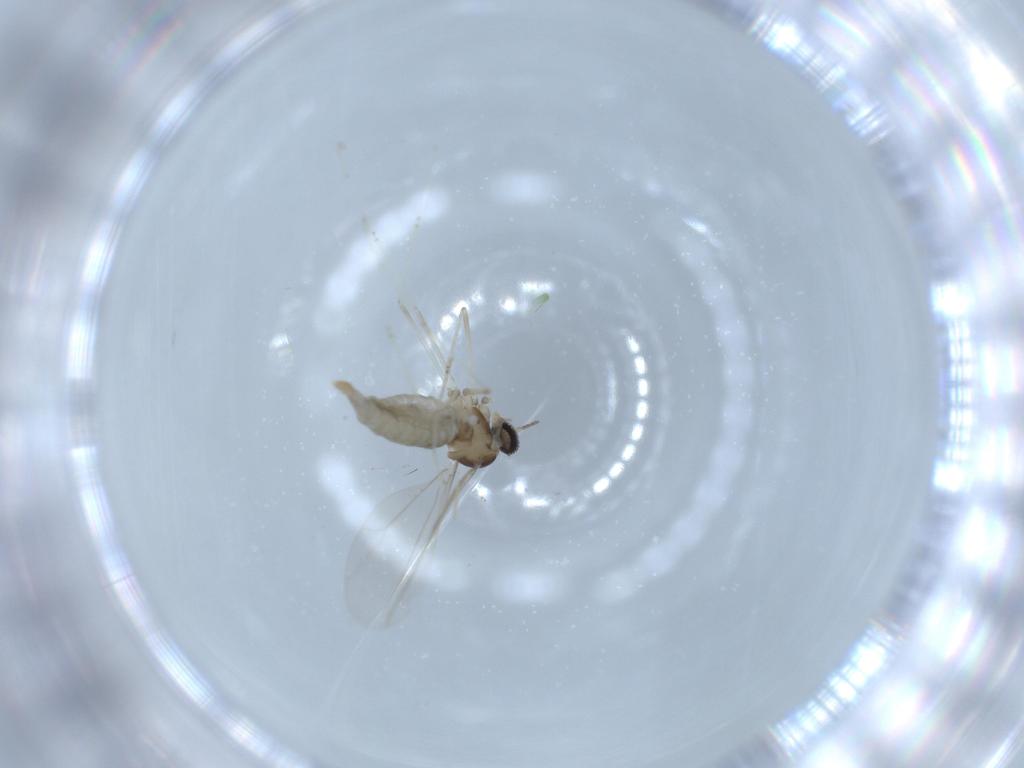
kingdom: Animalia
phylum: Arthropoda
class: Insecta
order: Diptera
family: Cecidomyiidae
